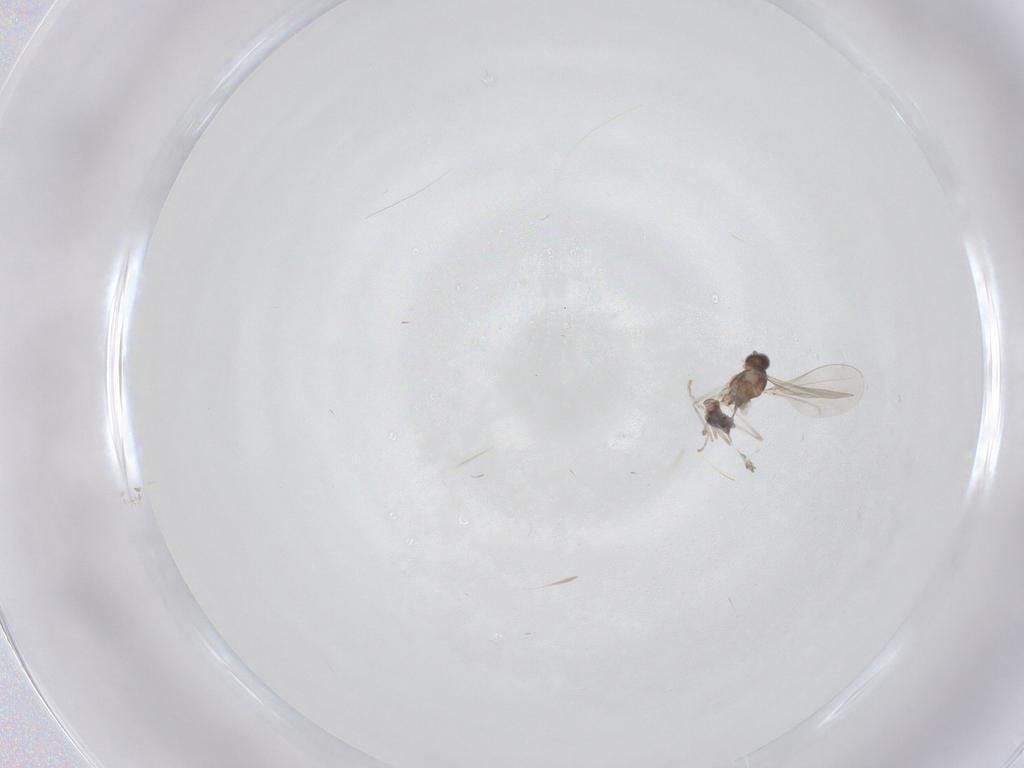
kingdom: Animalia
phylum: Arthropoda
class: Insecta
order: Diptera
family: Cecidomyiidae
